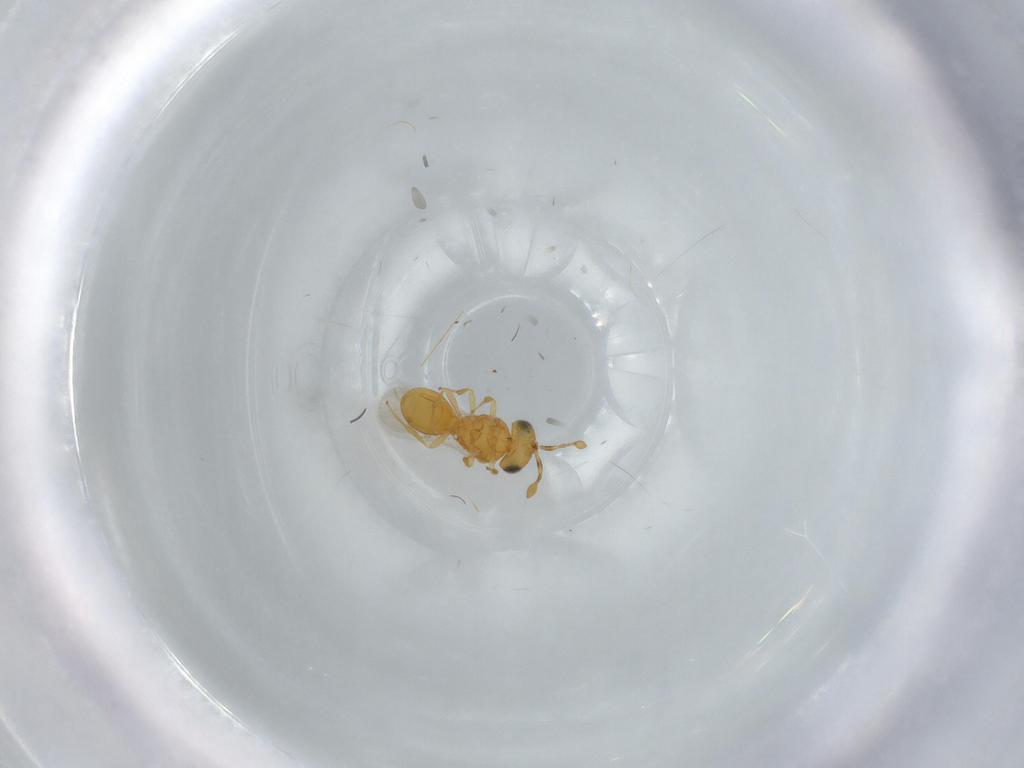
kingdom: Animalia
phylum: Arthropoda
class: Insecta
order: Hymenoptera
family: Scelionidae
